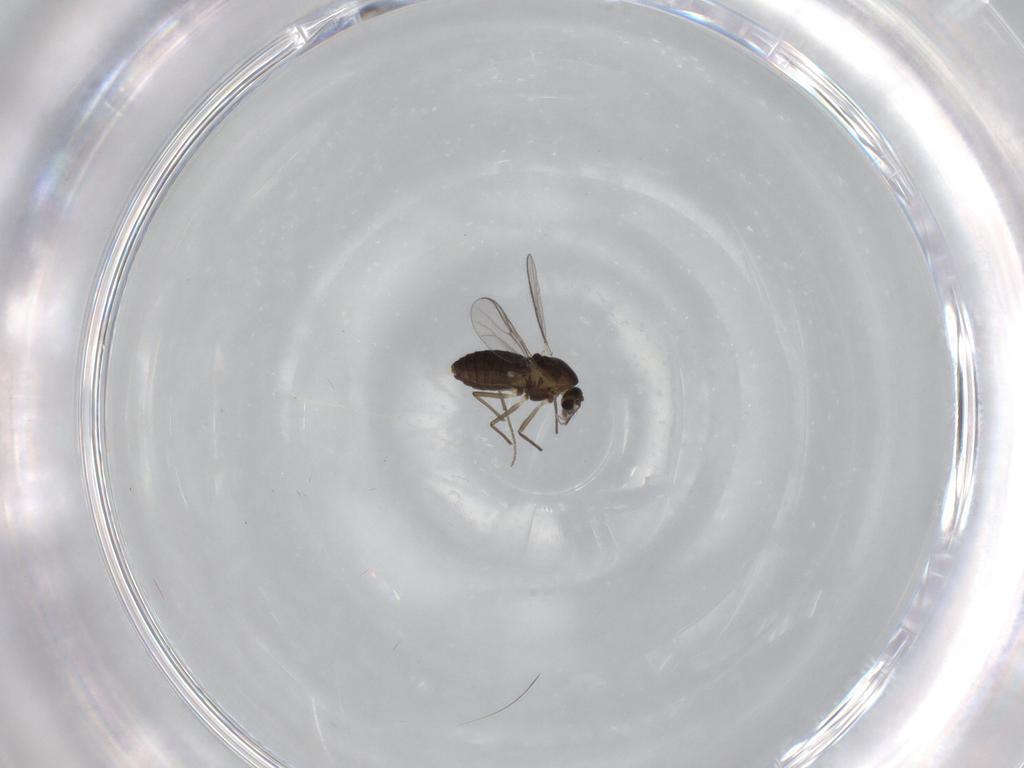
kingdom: Animalia
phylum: Arthropoda
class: Insecta
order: Diptera
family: Chironomidae
